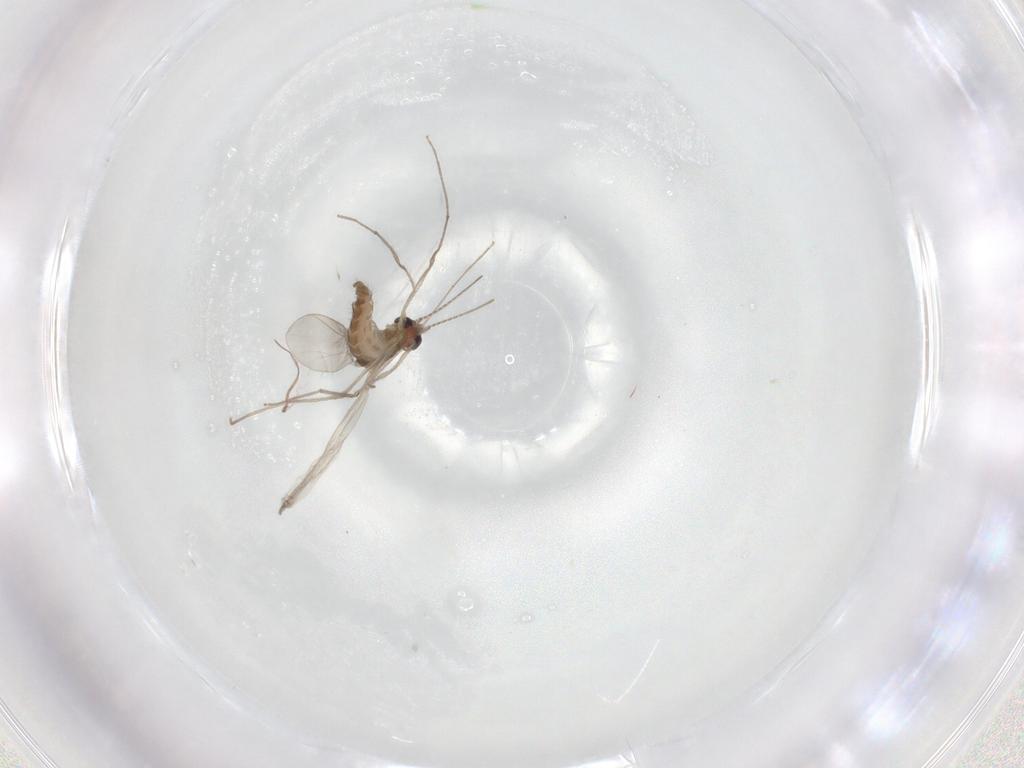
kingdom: Animalia
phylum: Arthropoda
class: Insecta
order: Diptera
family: Chironomidae
